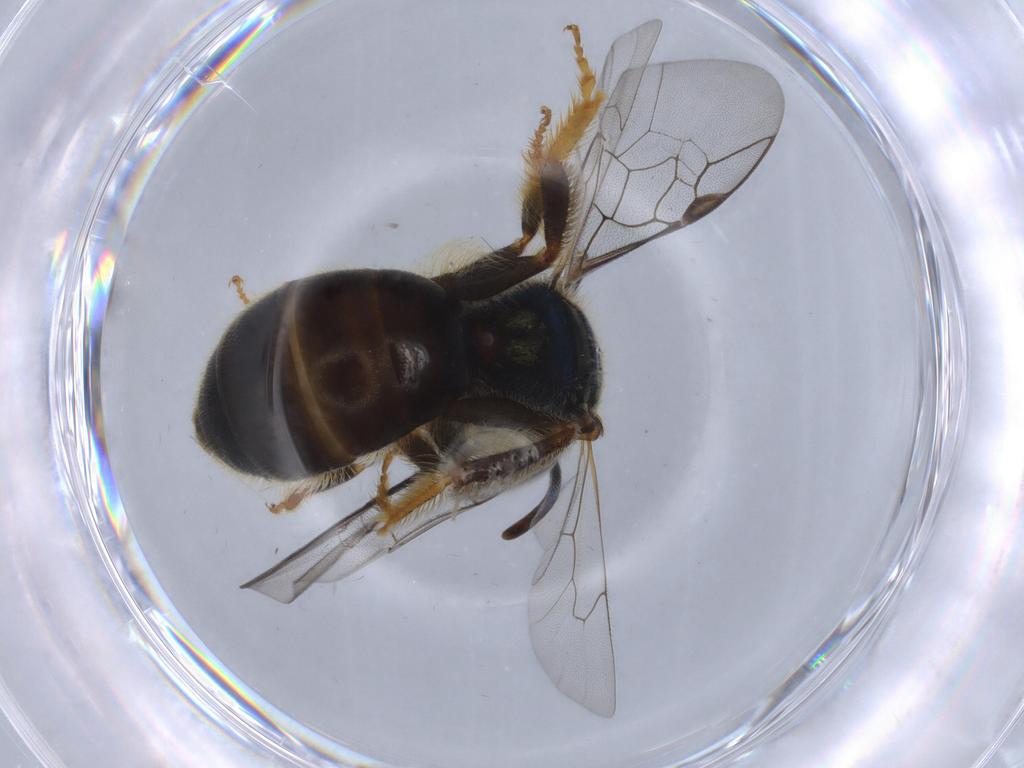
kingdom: Animalia
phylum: Arthropoda
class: Insecta
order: Hymenoptera
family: Halictidae
